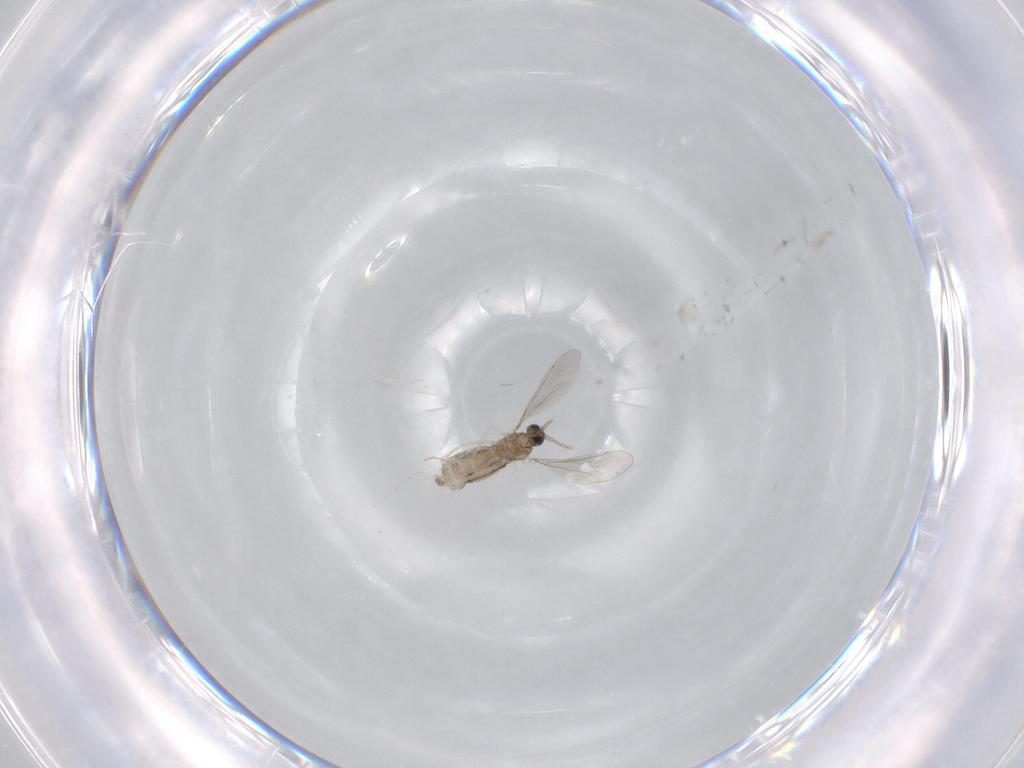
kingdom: Animalia
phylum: Arthropoda
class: Insecta
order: Diptera
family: Cecidomyiidae
